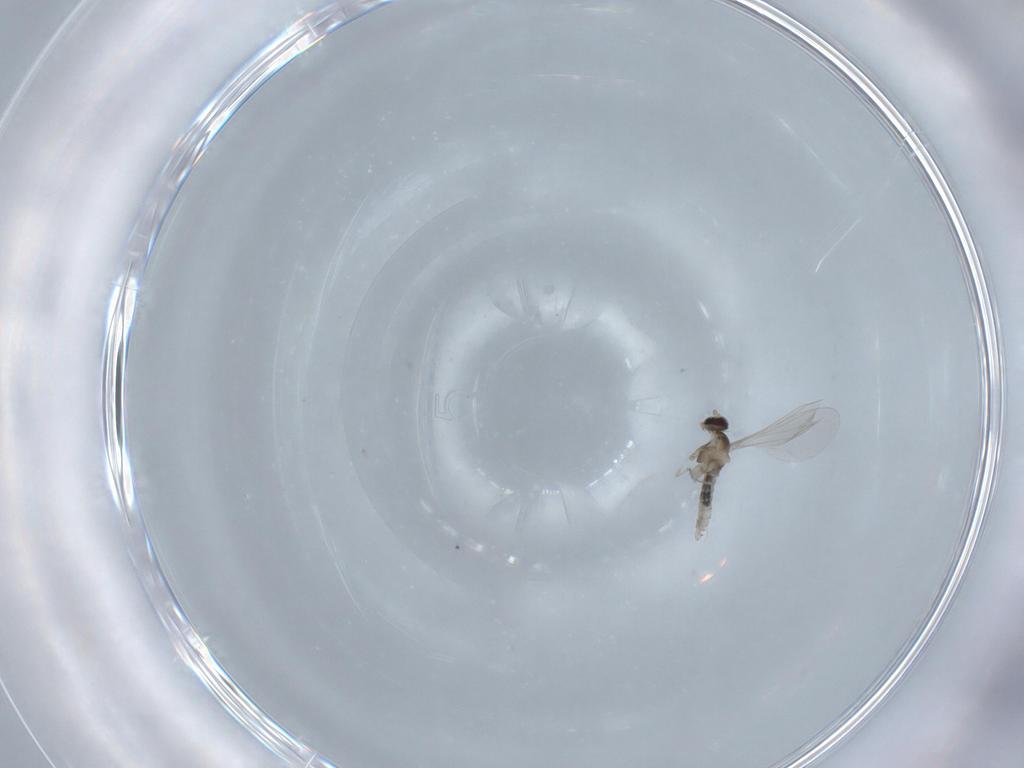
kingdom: Animalia
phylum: Arthropoda
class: Insecta
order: Diptera
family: Cecidomyiidae
